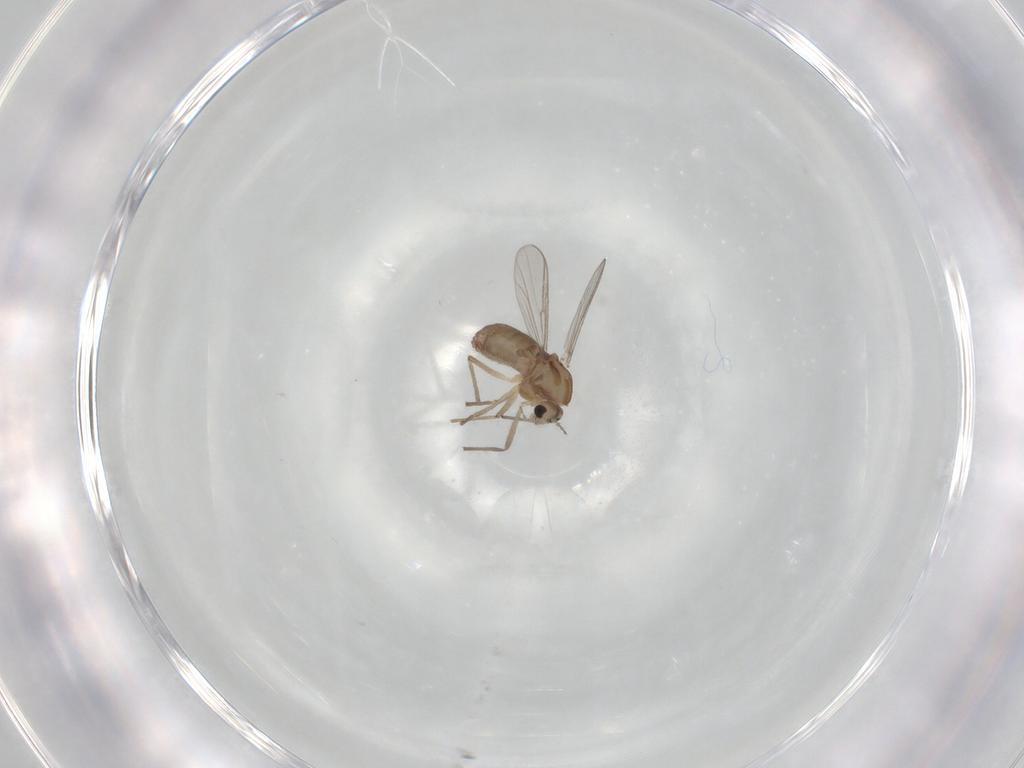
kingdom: Animalia
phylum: Arthropoda
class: Insecta
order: Diptera
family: Chironomidae
